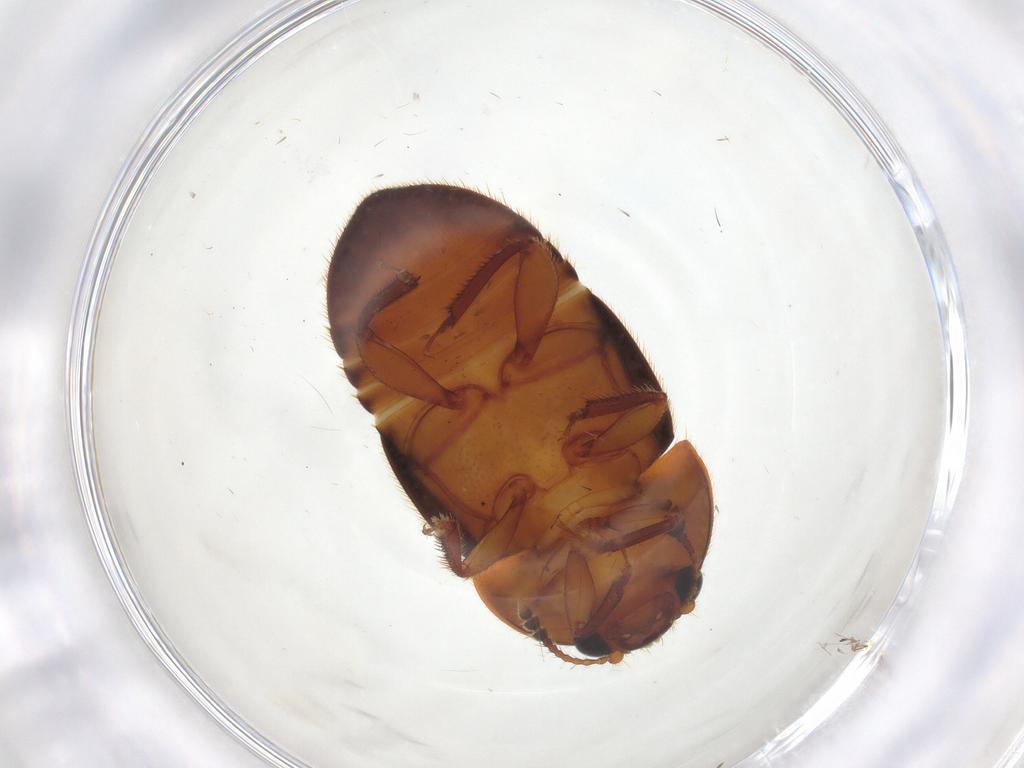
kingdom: Animalia
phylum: Arthropoda
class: Insecta
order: Coleoptera
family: Nitidulidae
